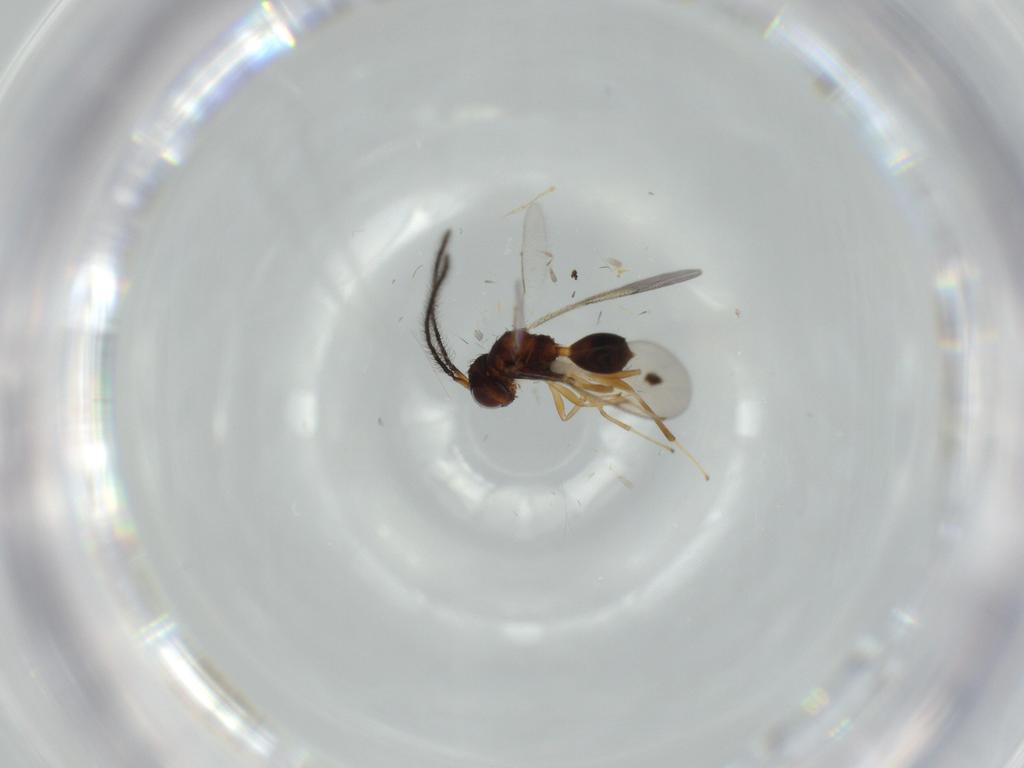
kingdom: Animalia
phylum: Arthropoda
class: Insecta
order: Hymenoptera
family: Diparidae
